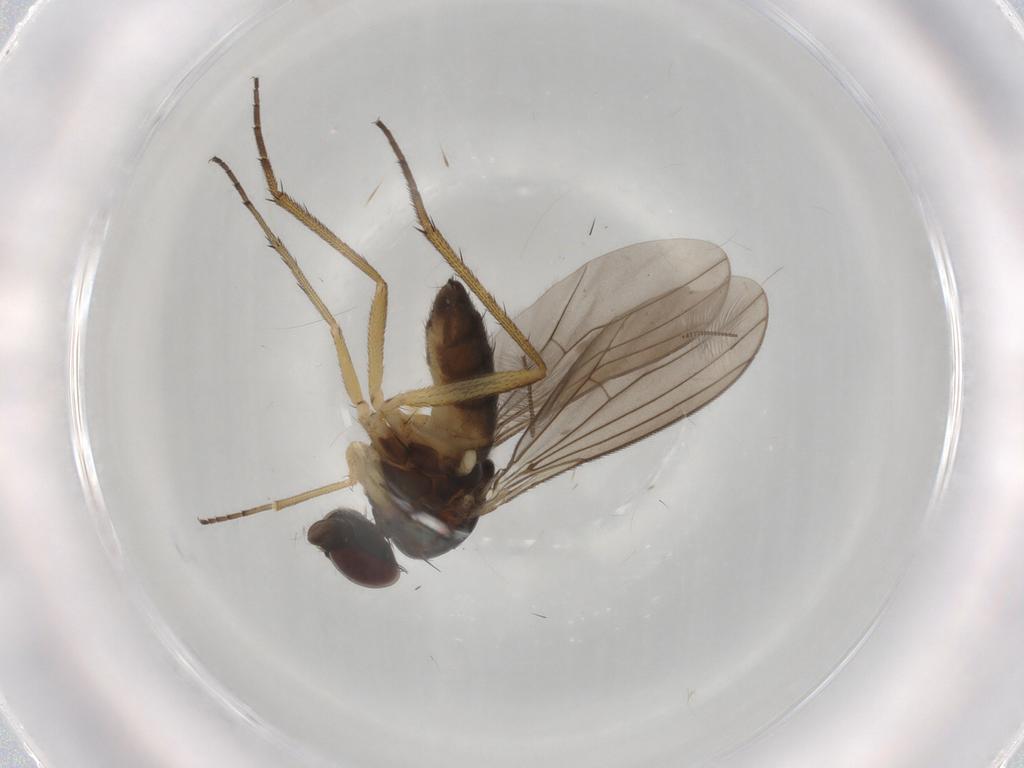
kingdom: Animalia
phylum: Arthropoda
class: Insecta
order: Diptera
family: Dolichopodidae
